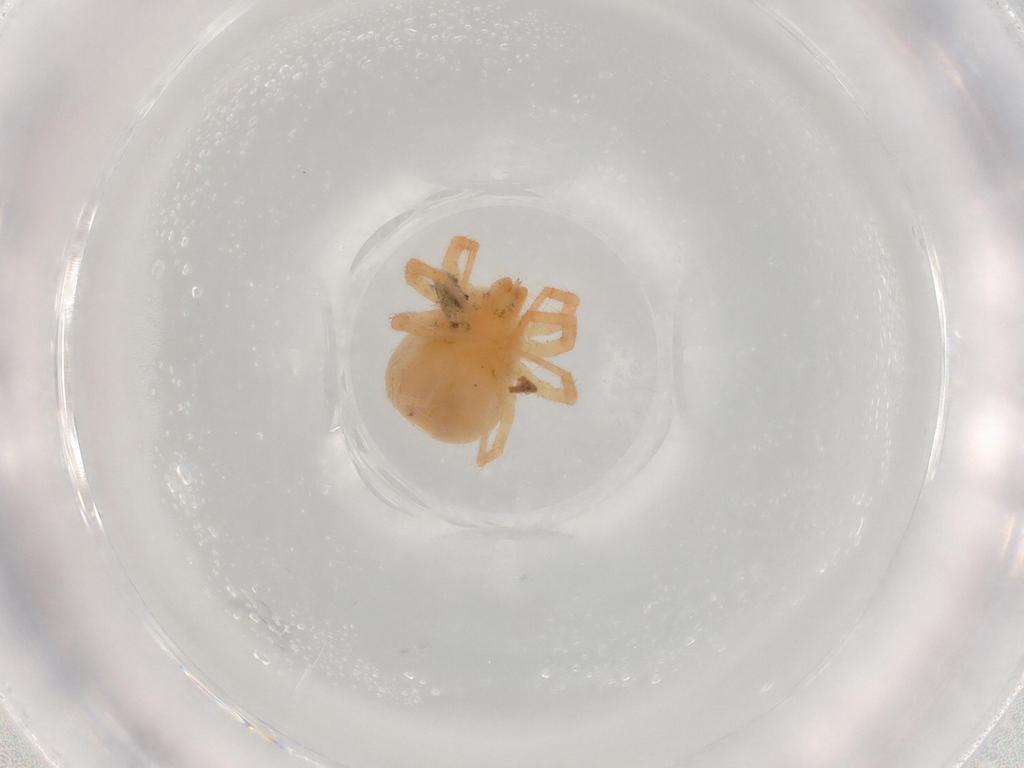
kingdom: Animalia
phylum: Arthropoda
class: Arachnida
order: Trombidiformes
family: Anystidae
